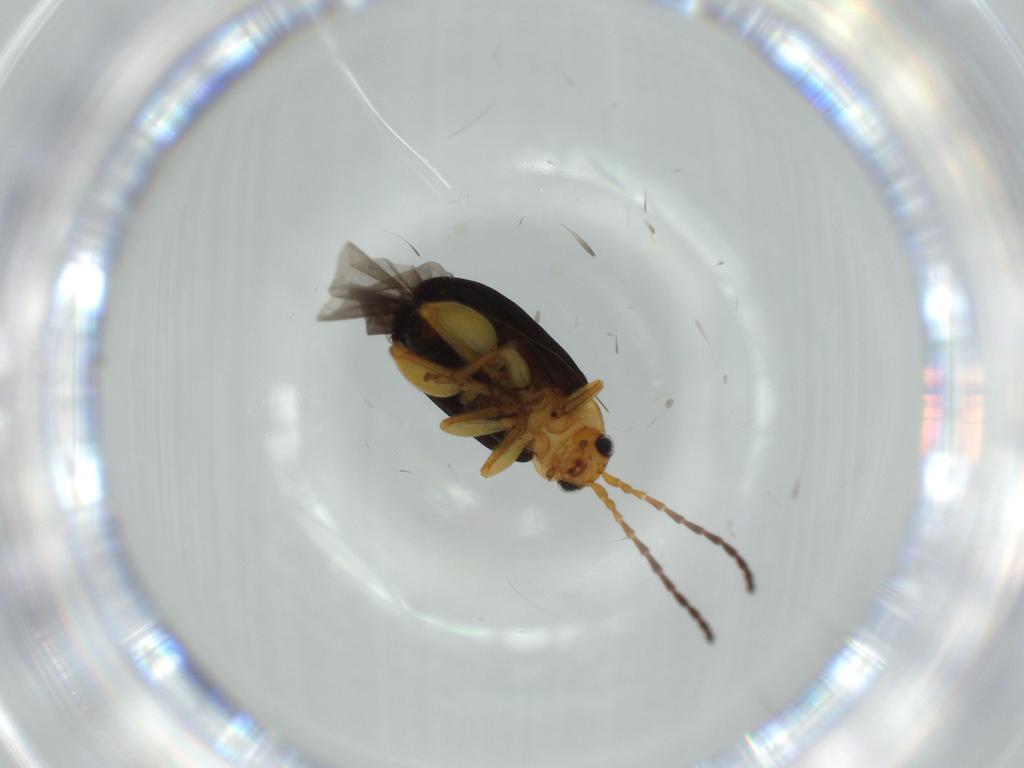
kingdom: Animalia
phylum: Arthropoda
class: Insecta
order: Coleoptera
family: Chrysomelidae
